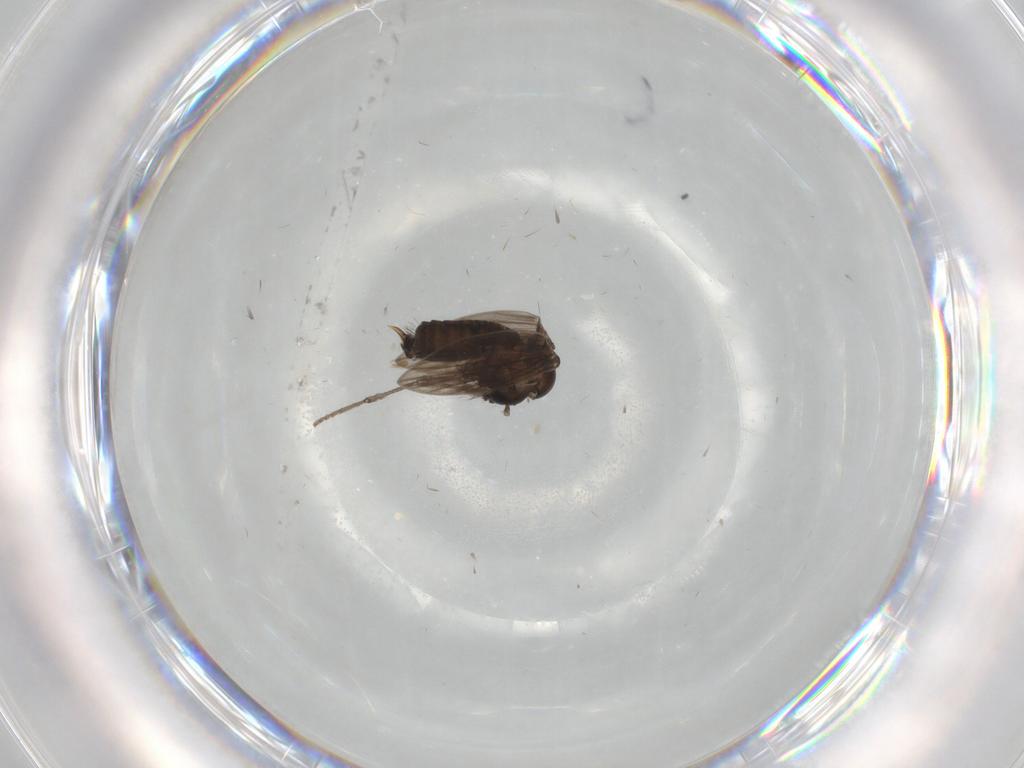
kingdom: Animalia
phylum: Arthropoda
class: Insecta
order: Diptera
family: Psychodidae
